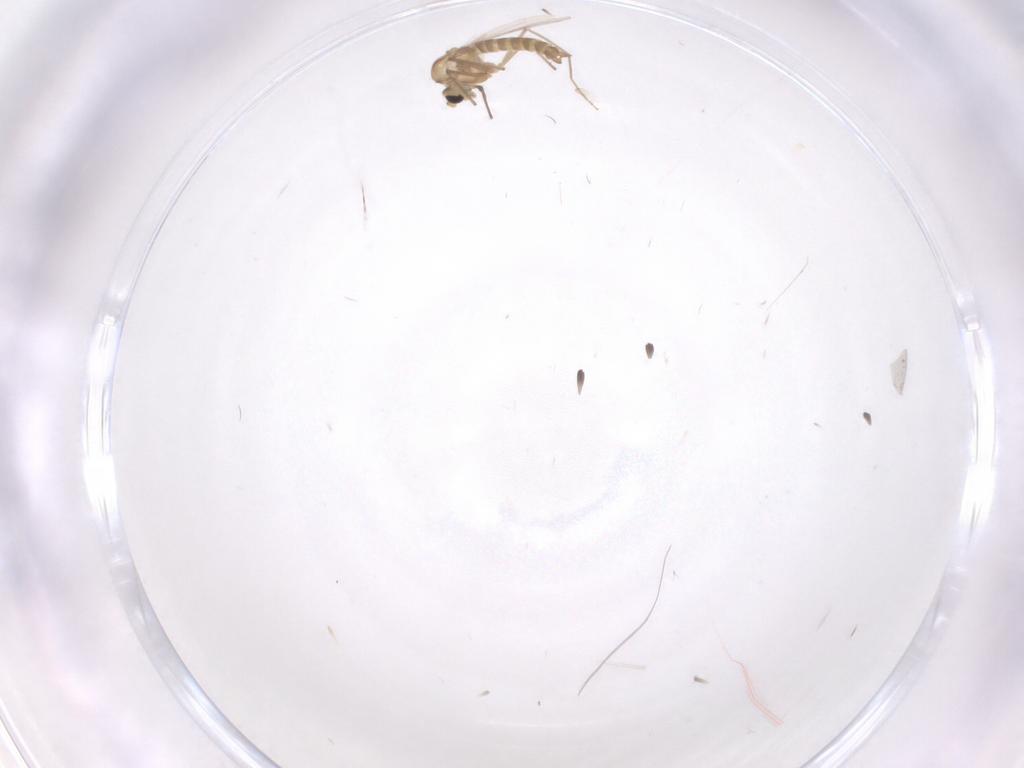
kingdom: Animalia
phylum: Arthropoda
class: Insecta
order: Diptera
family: Chironomidae
